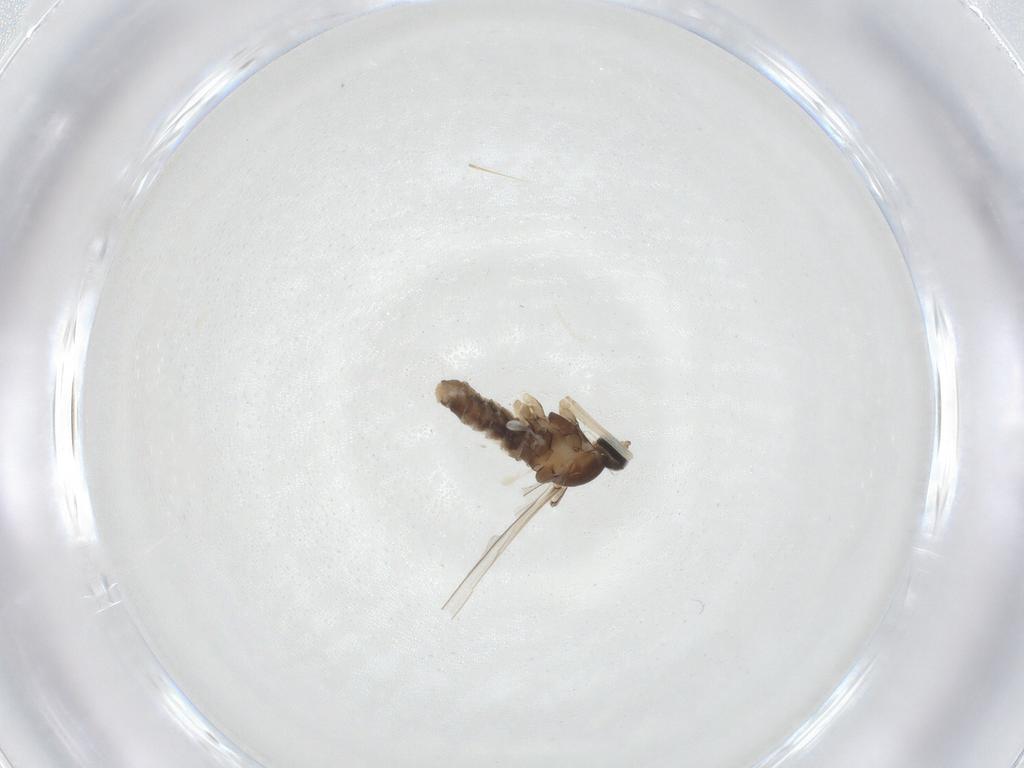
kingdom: Animalia
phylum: Arthropoda
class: Insecta
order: Diptera
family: Cecidomyiidae
